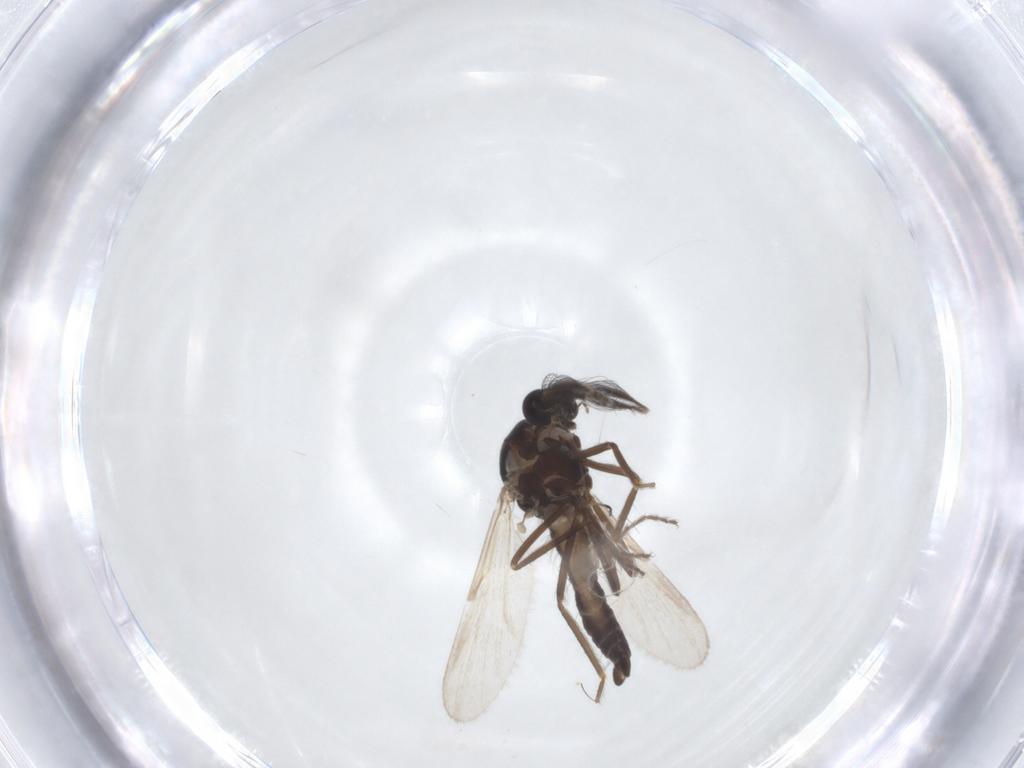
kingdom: Animalia
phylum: Arthropoda
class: Insecta
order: Diptera
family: Ceratopogonidae
